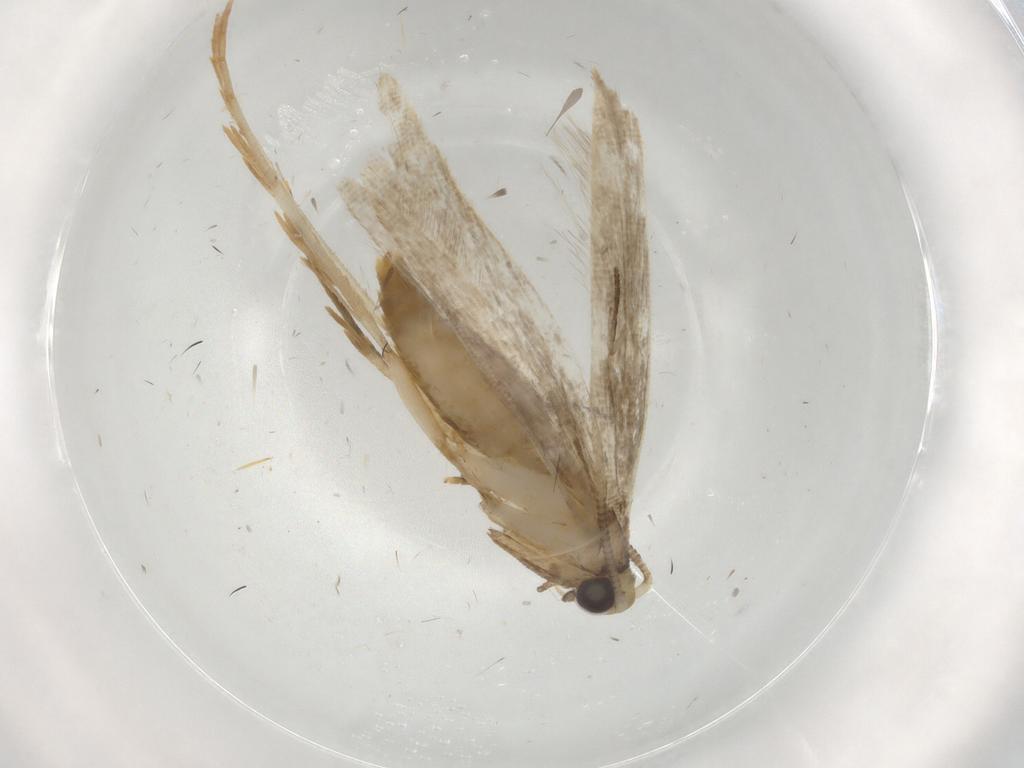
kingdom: Animalia
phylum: Arthropoda
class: Insecta
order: Lepidoptera
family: Tineidae
